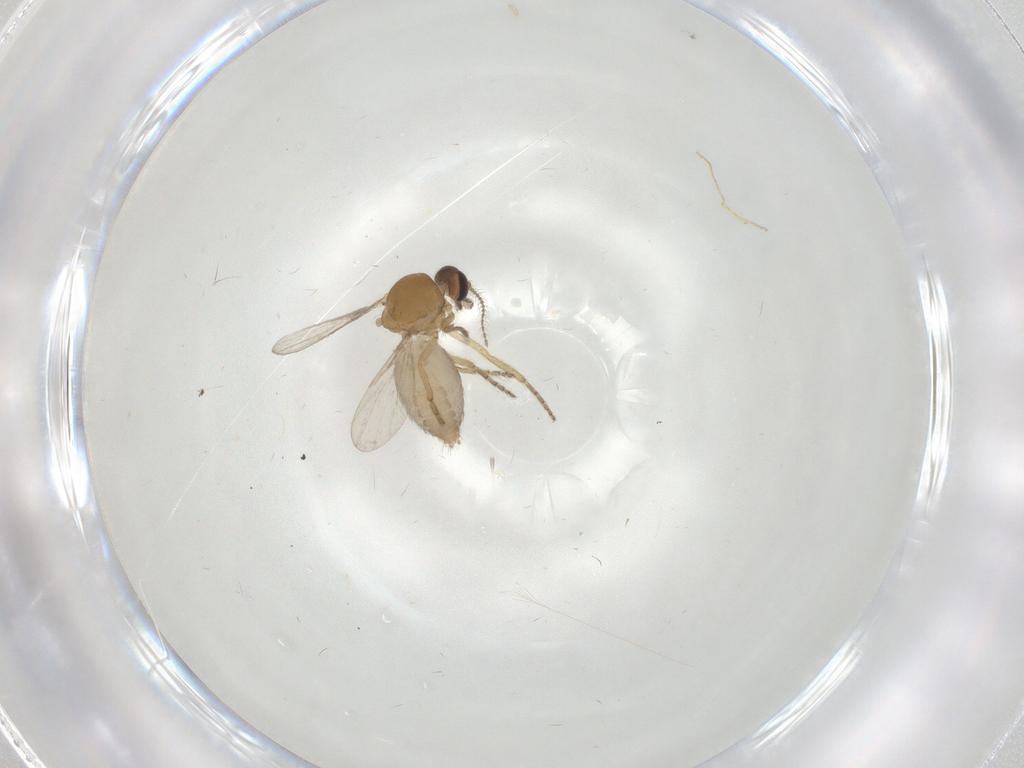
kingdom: Animalia
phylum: Arthropoda
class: Insecta
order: Diptera
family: Ceratopogonidae
